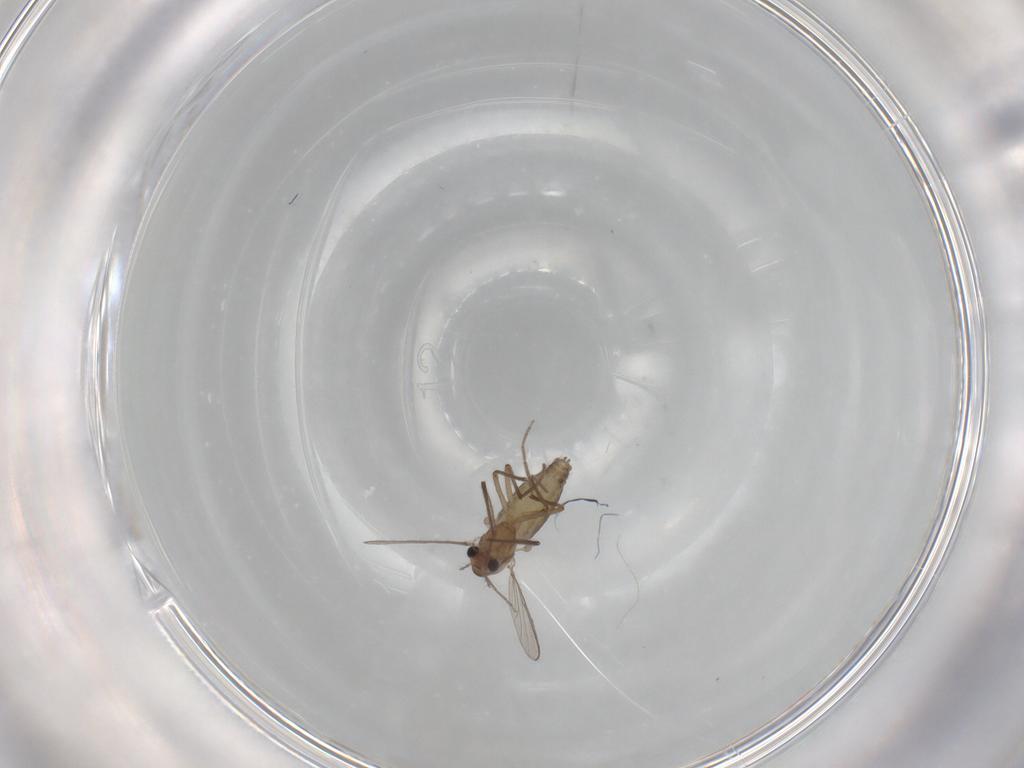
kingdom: Animalia
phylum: Arthropoda
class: Insecta
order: Diptera
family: Chironomidae
